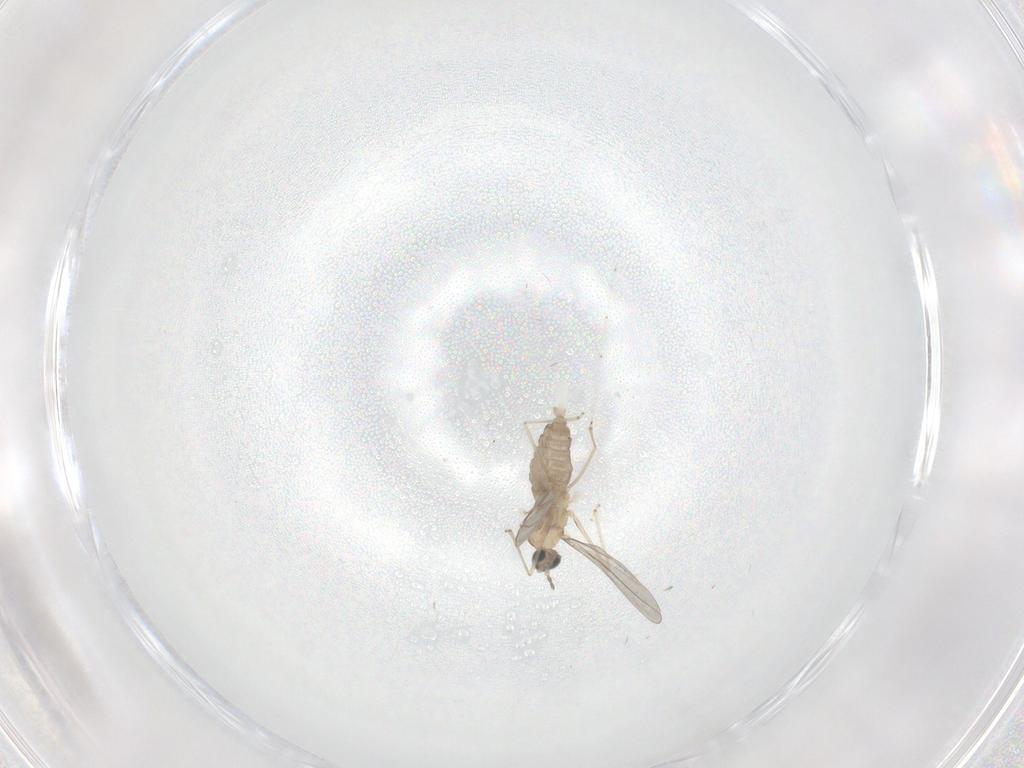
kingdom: Animalia
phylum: Arthropoda
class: Insecta
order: Diptera
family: Cecidomyiidae
